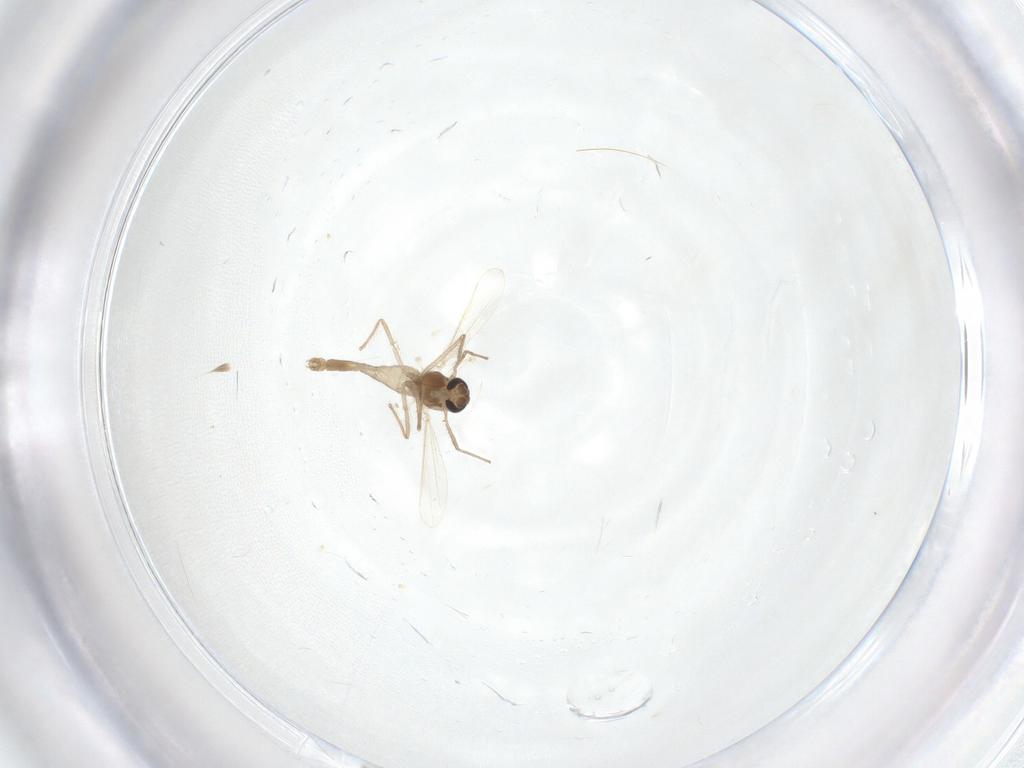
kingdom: Animalia
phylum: Arthropoda
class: Insecta
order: Diptera
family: Chironomidae
